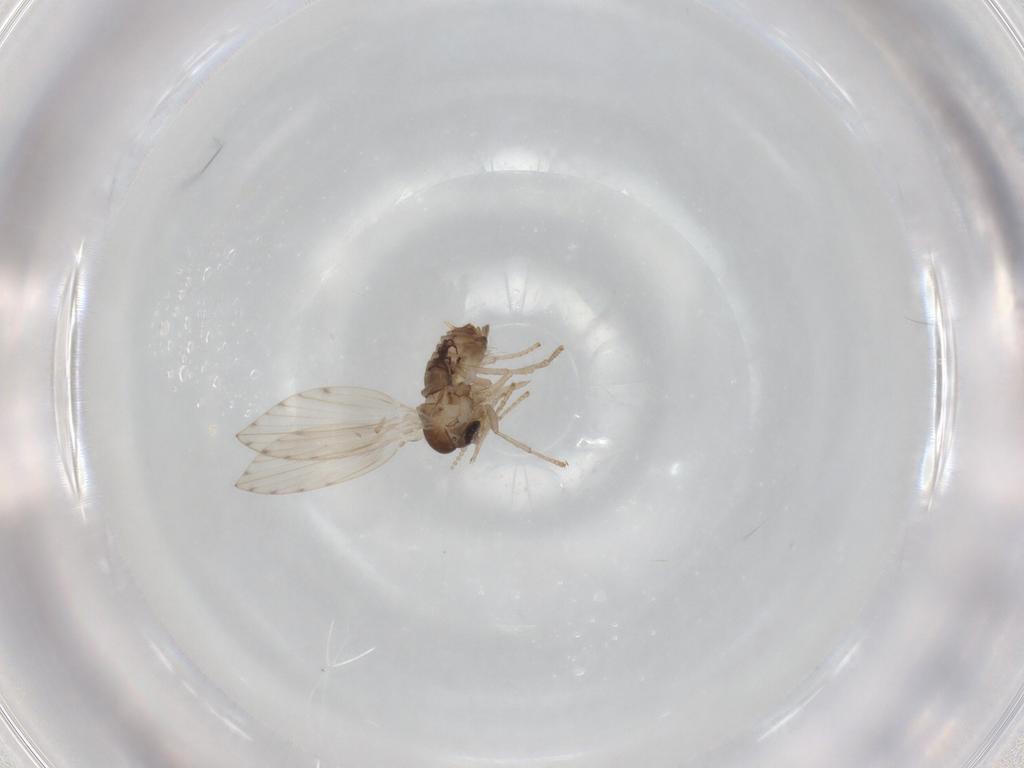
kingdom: Animalia
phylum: Arthropoda
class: Insecta
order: Diptera
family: Psychodidae
